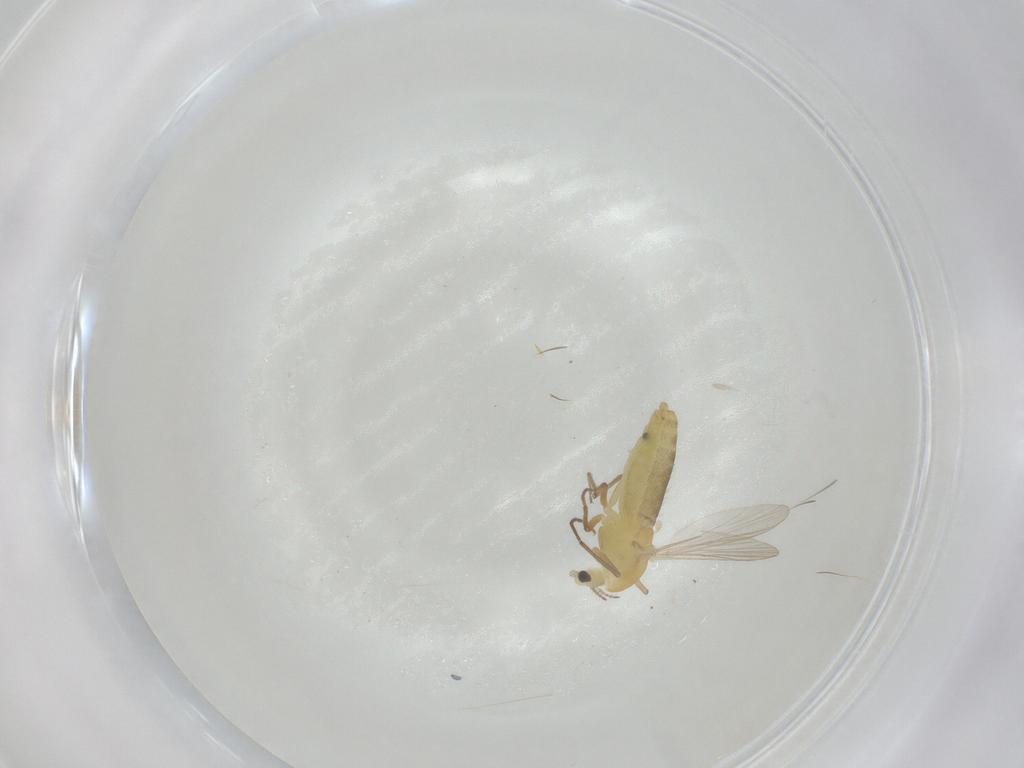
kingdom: Animalia
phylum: Arthropoda
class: Insecta
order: Diptera
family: Chironomidae
